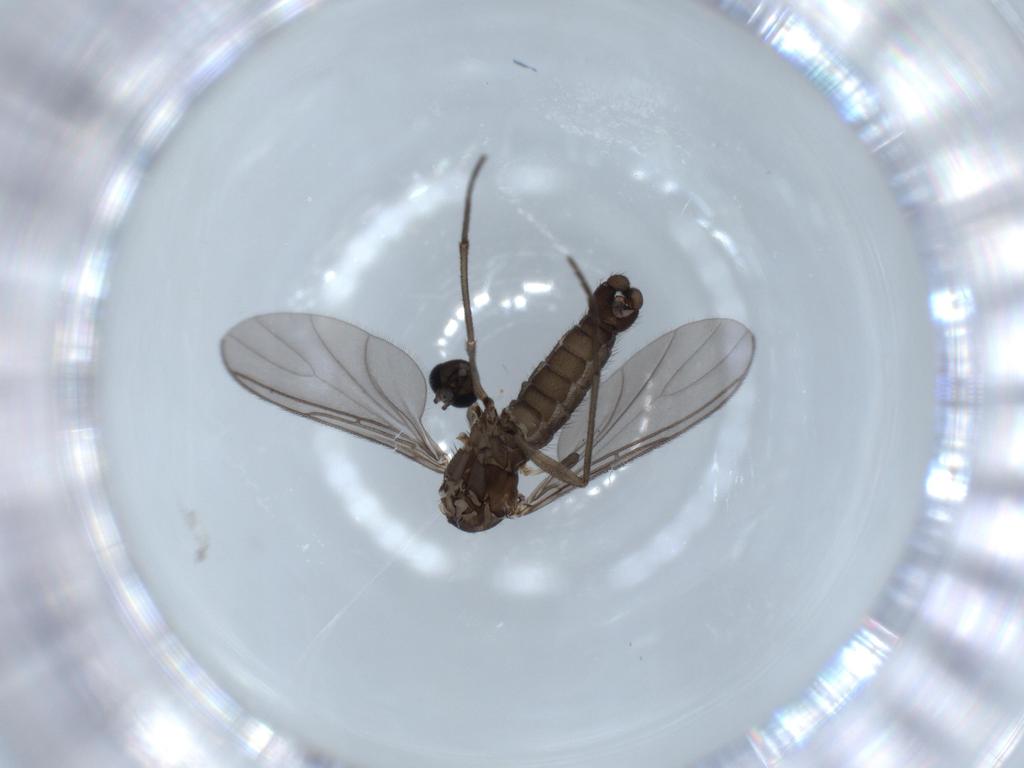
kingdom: Animalia
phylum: Arthropoda
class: Insecta
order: Diptera
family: Sciaridae
